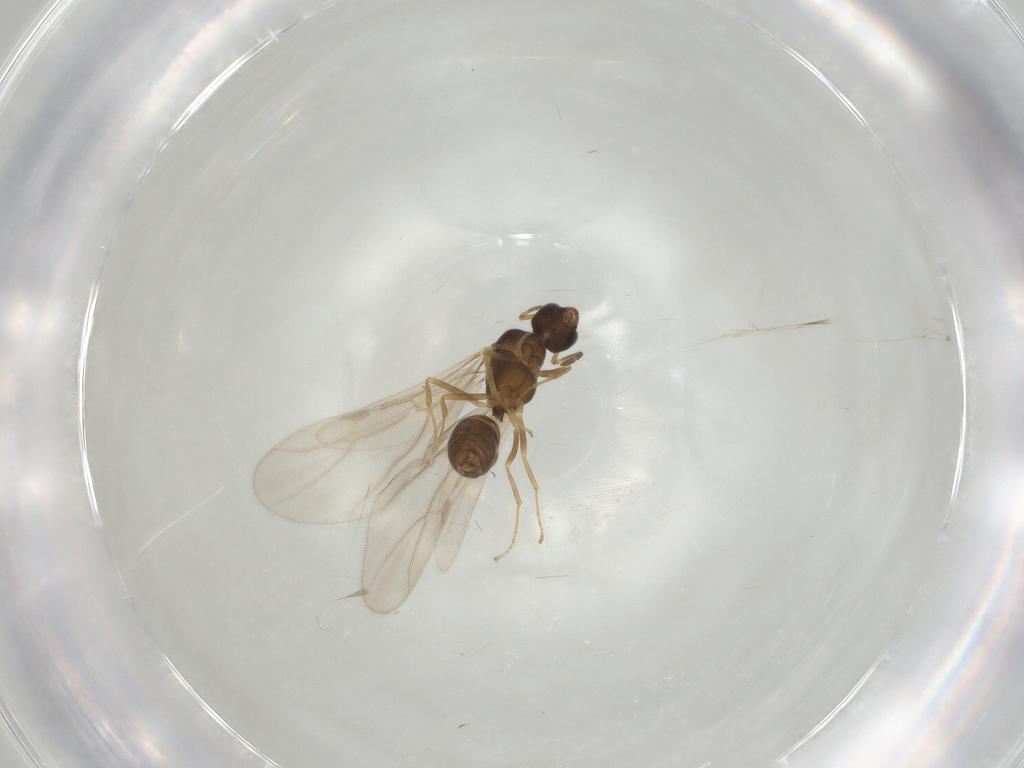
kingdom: Animalia
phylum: Arthropoda
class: Insecta
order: Hymenoptera
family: Formicidae
